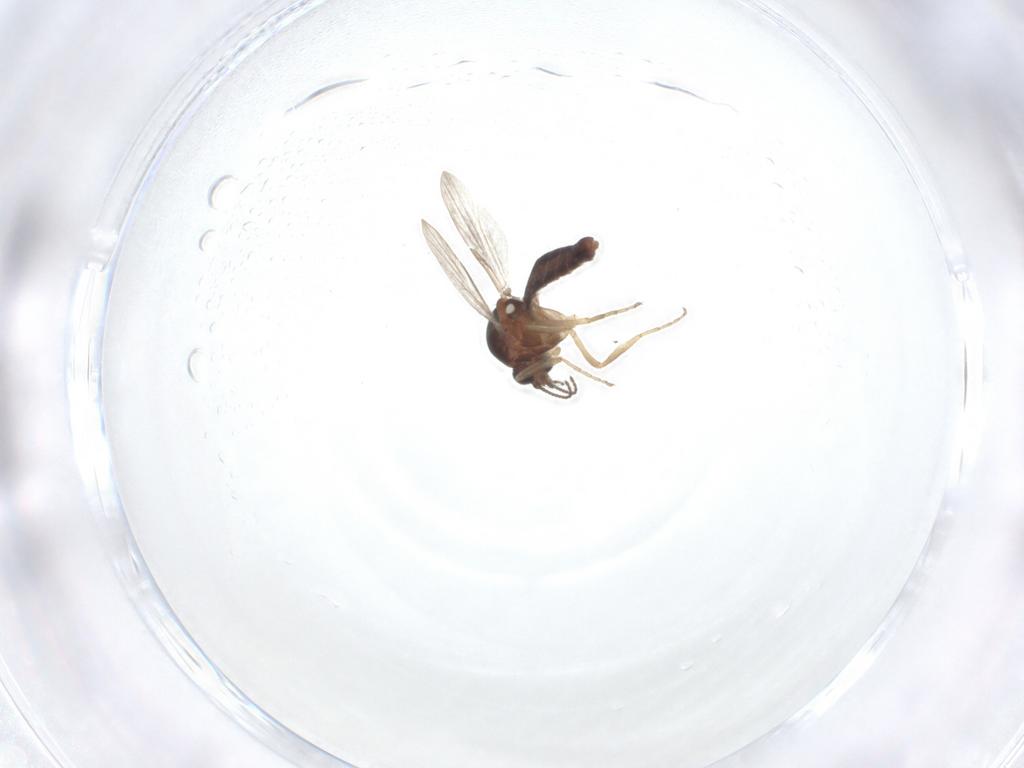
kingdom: Animalia
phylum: Arthropoda
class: Insecta
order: Diptera
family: Ceratopogonidae
